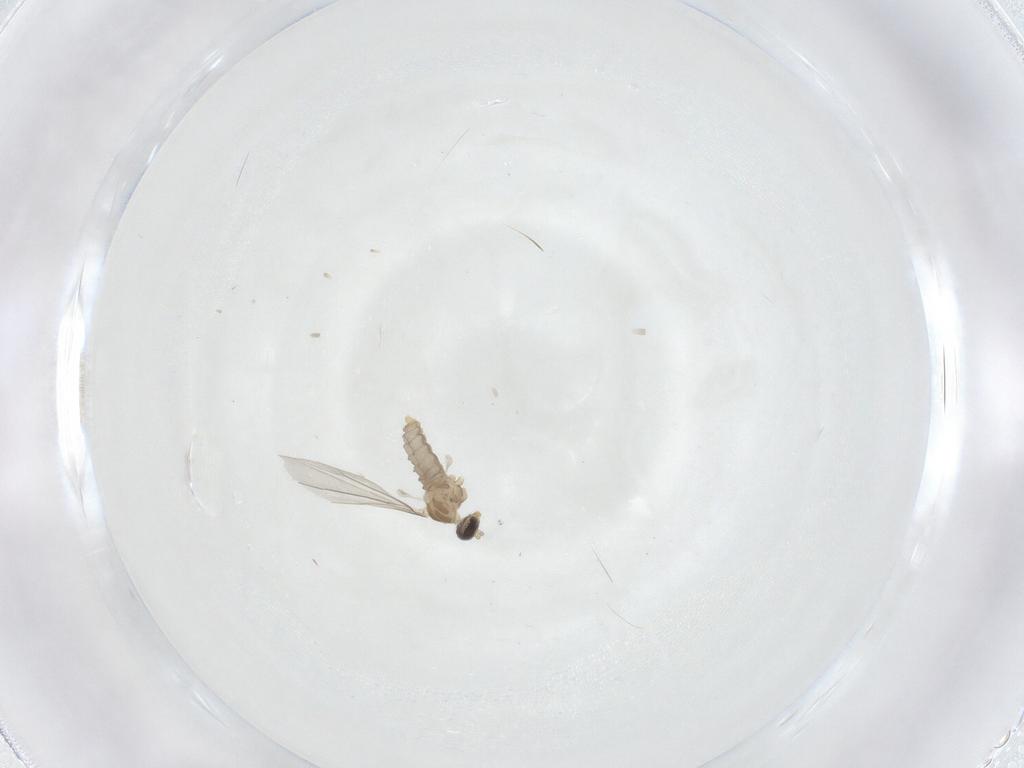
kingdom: Animalia
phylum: Arthropoda
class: Insecta
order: Diptera
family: Cecidomyiidae
